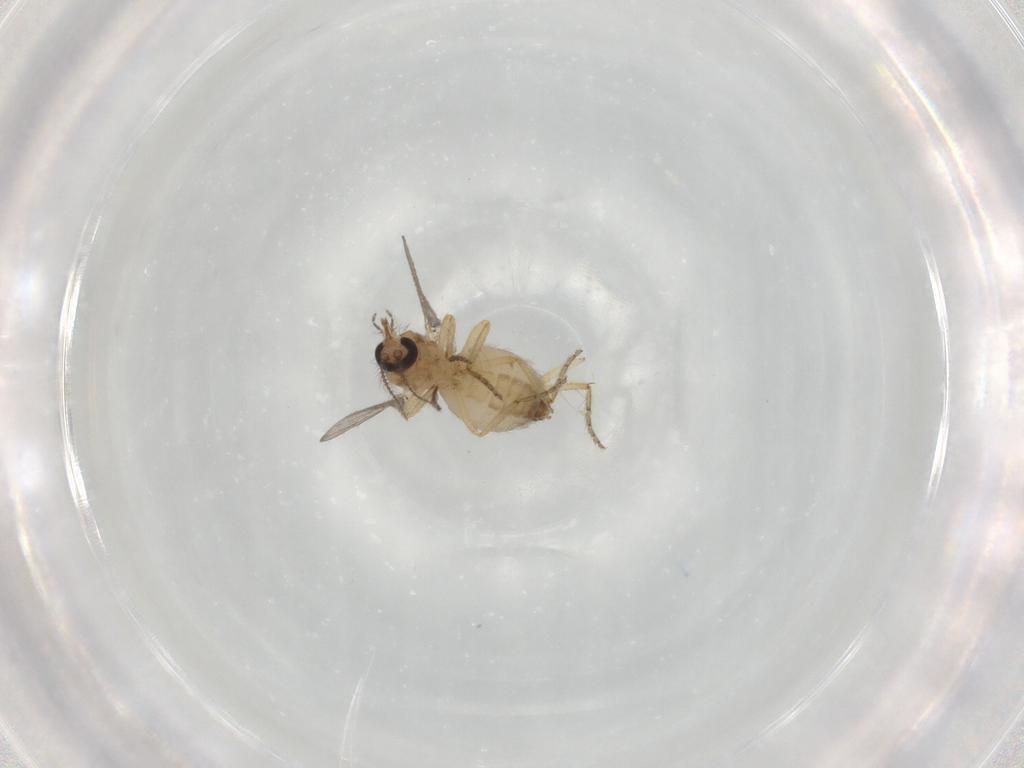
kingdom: Animalia
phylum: Arthropoda
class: Insecta
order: Diptera
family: Ceratopogonidae
